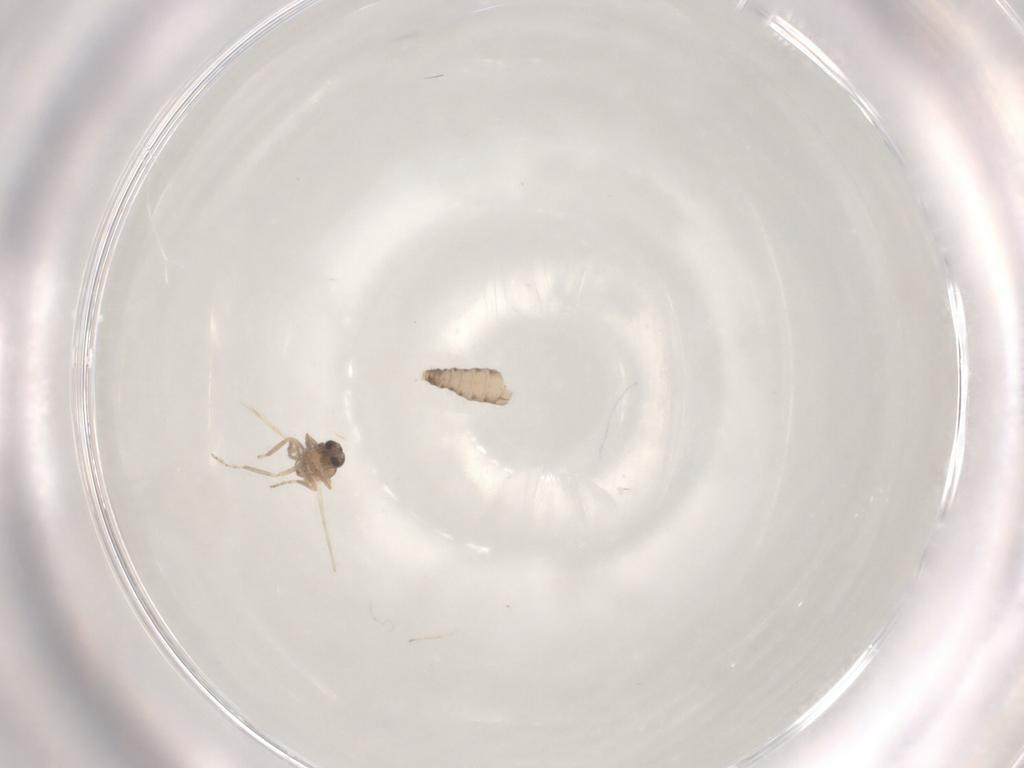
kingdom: Animalia
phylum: Arthropoda
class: Insecta
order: Diptera
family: Ceratopogonidae
